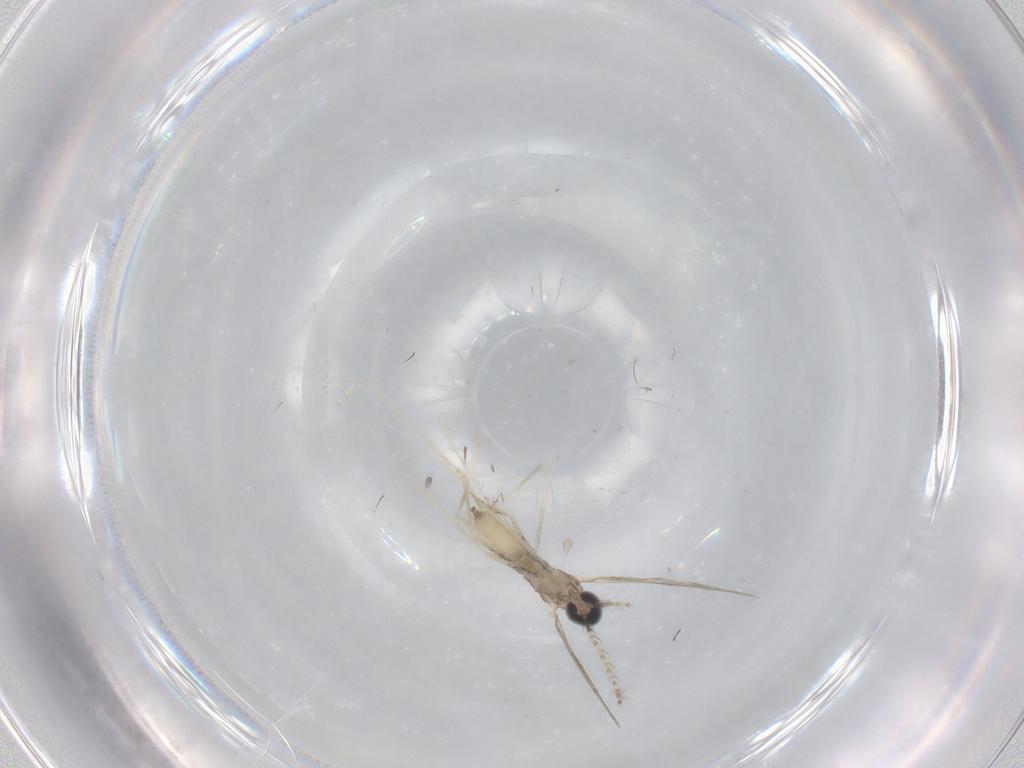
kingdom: Animalia
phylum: Arthropoda
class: Insecta
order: Diptera
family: Cecidomyiidae
